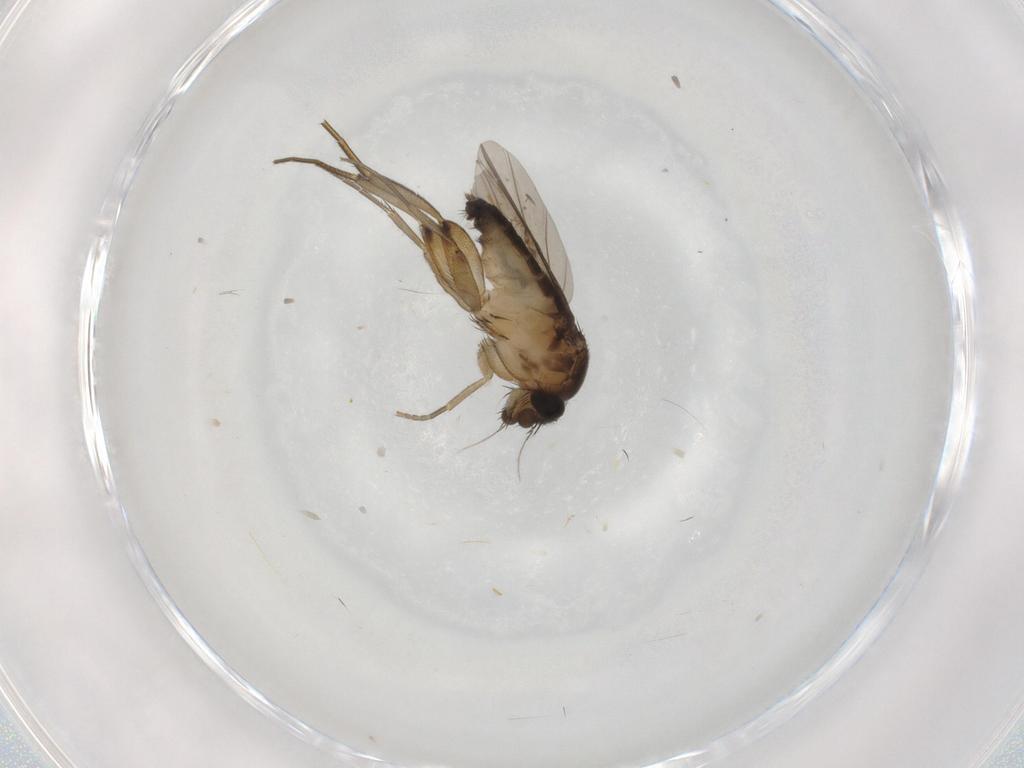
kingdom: Animalia
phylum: Arthropoda
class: Insecta
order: Diptera
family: Phoridae
